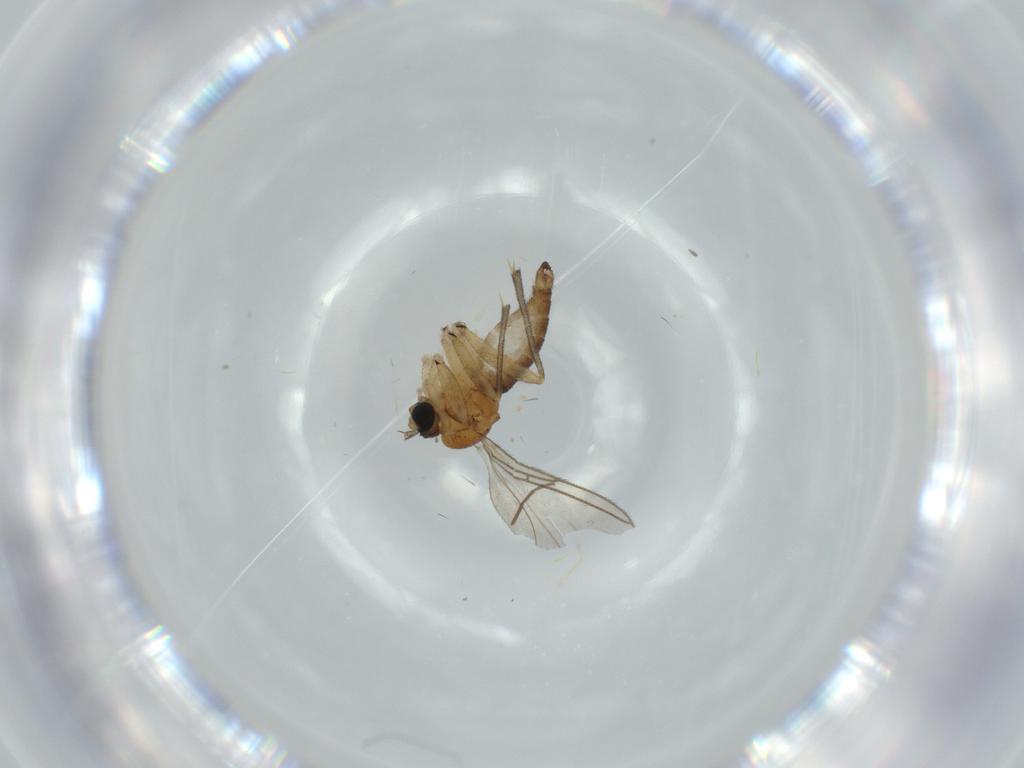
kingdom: Animalia
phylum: Arthropoda
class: Insecta
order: Diptera
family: Ceratopogonidae
